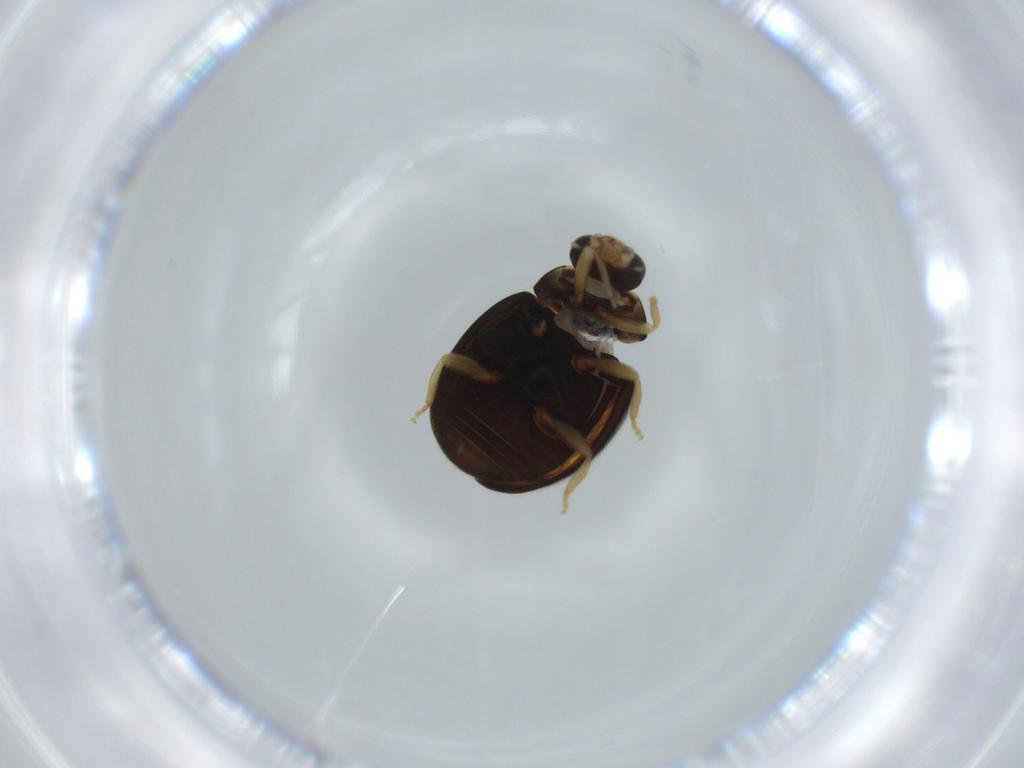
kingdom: Animalia
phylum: Arthropoda
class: Insecta
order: Coleoptera
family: Coccinellidae
